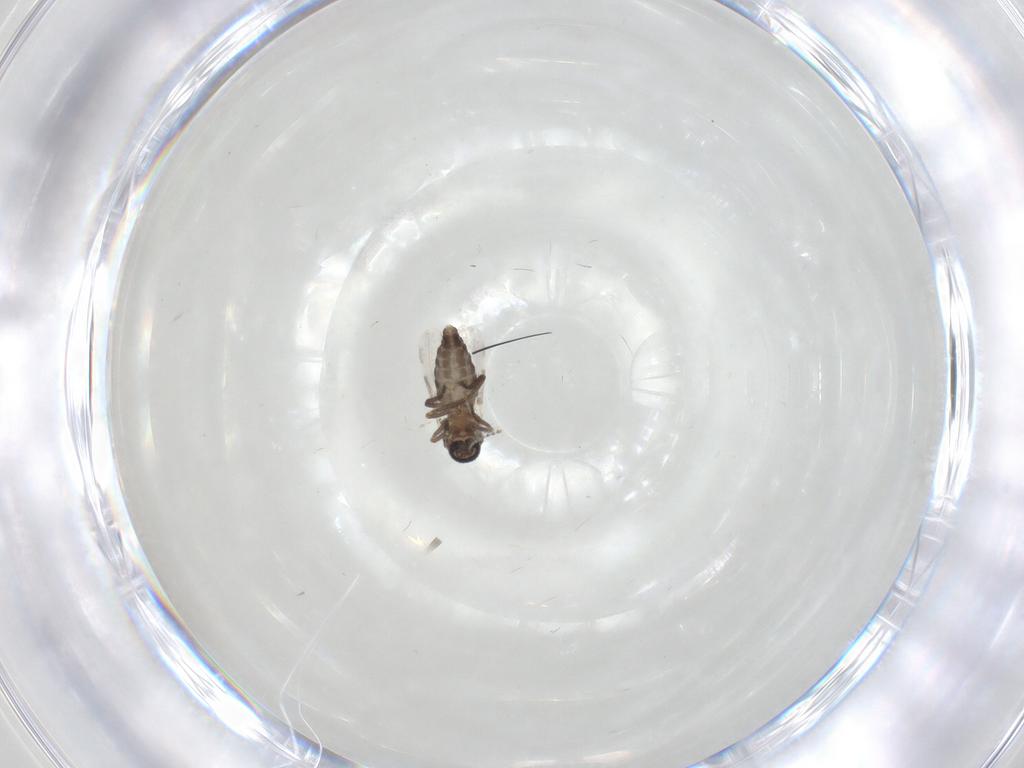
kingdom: Animalia
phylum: Arthropoda
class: Insecta
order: Diptera
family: Ceratopogonidae
